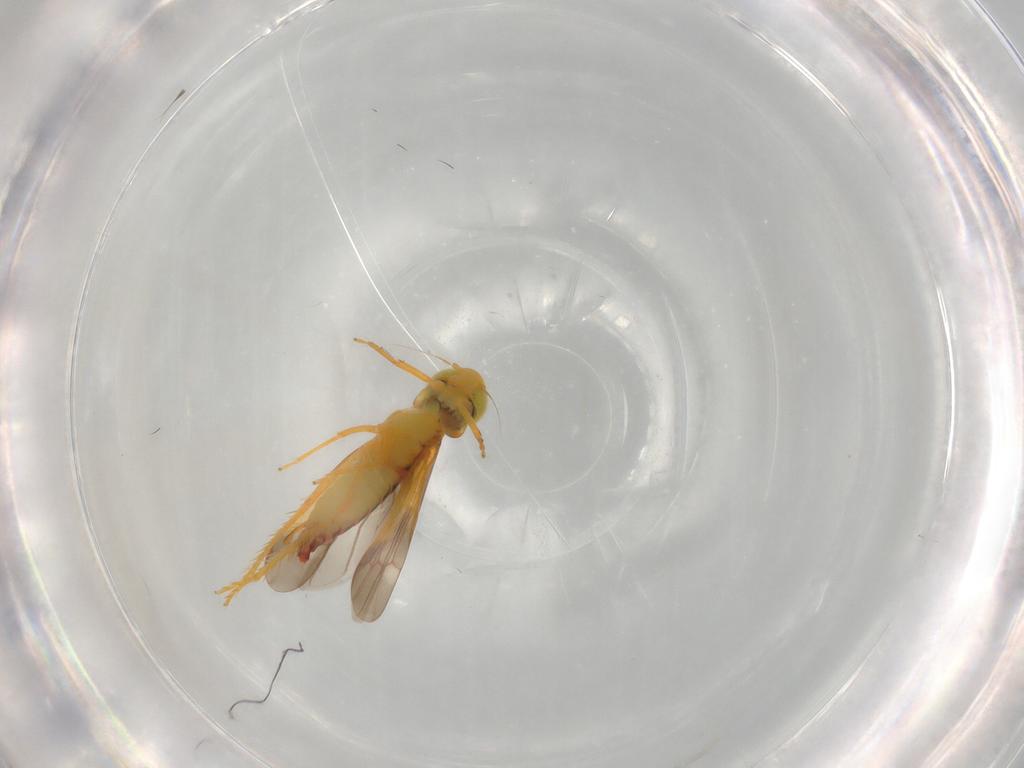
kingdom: Animalia
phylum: Arthropoda
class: Insecta
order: Hemiptera
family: Cicadellidae
